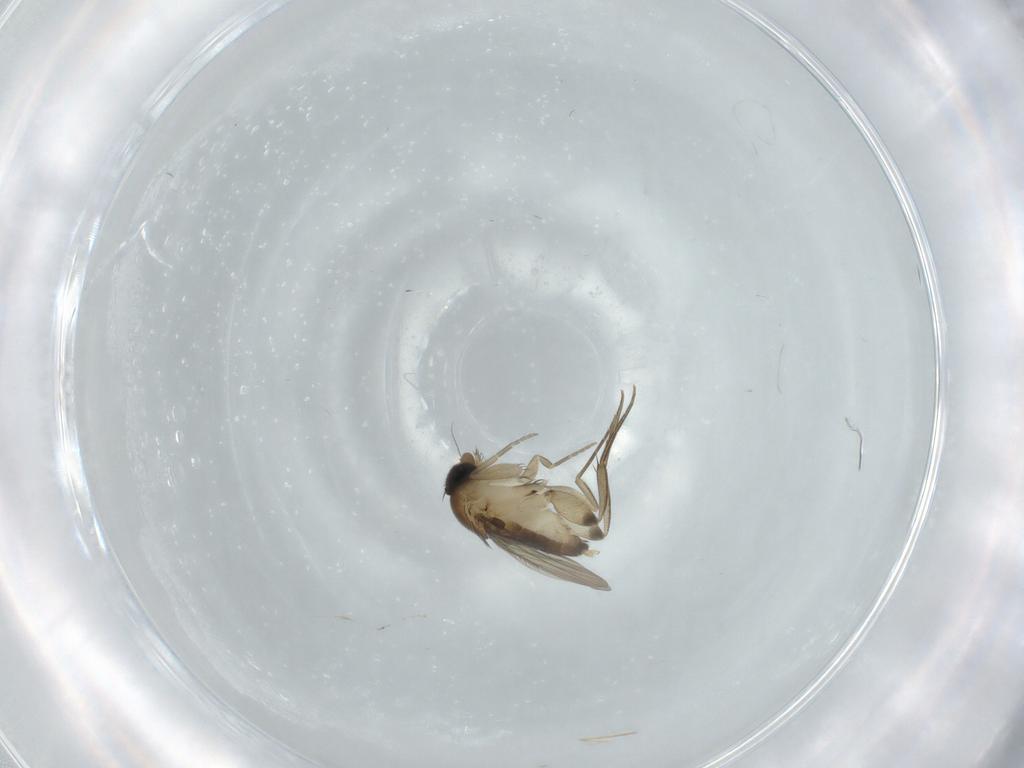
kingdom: Animalia
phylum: Arthropoda
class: Insecta
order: Diptera
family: Phoridae
